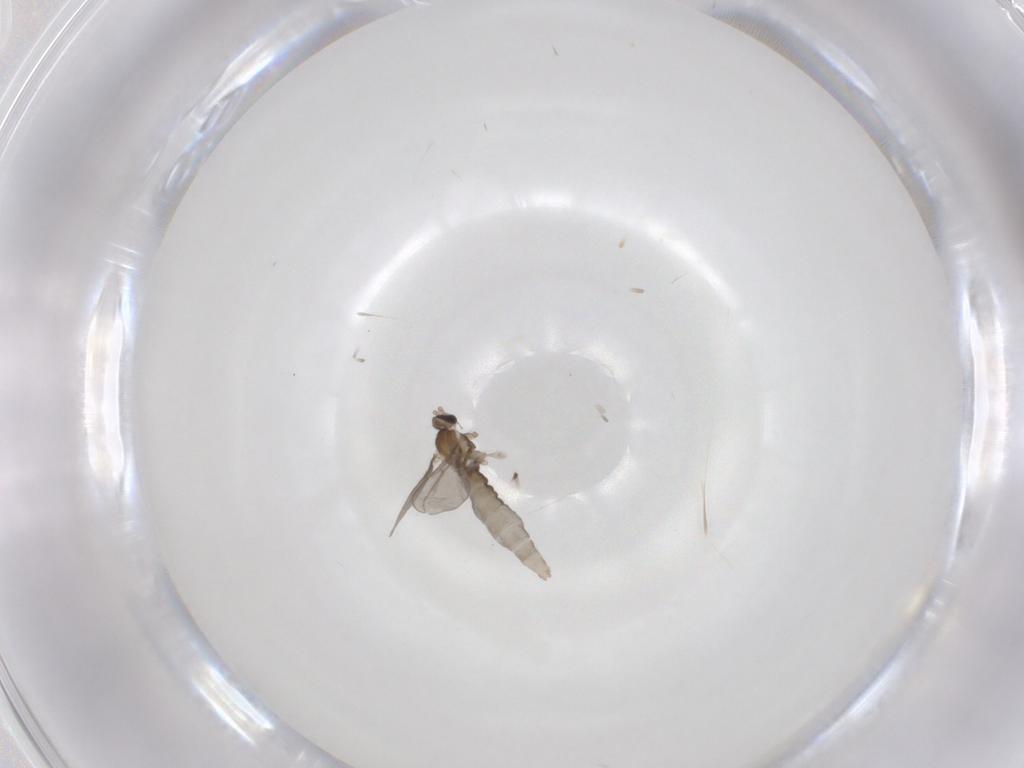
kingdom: Animalia
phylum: Arthropoda
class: Insecta
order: Diptera
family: Cecidomyiidae
